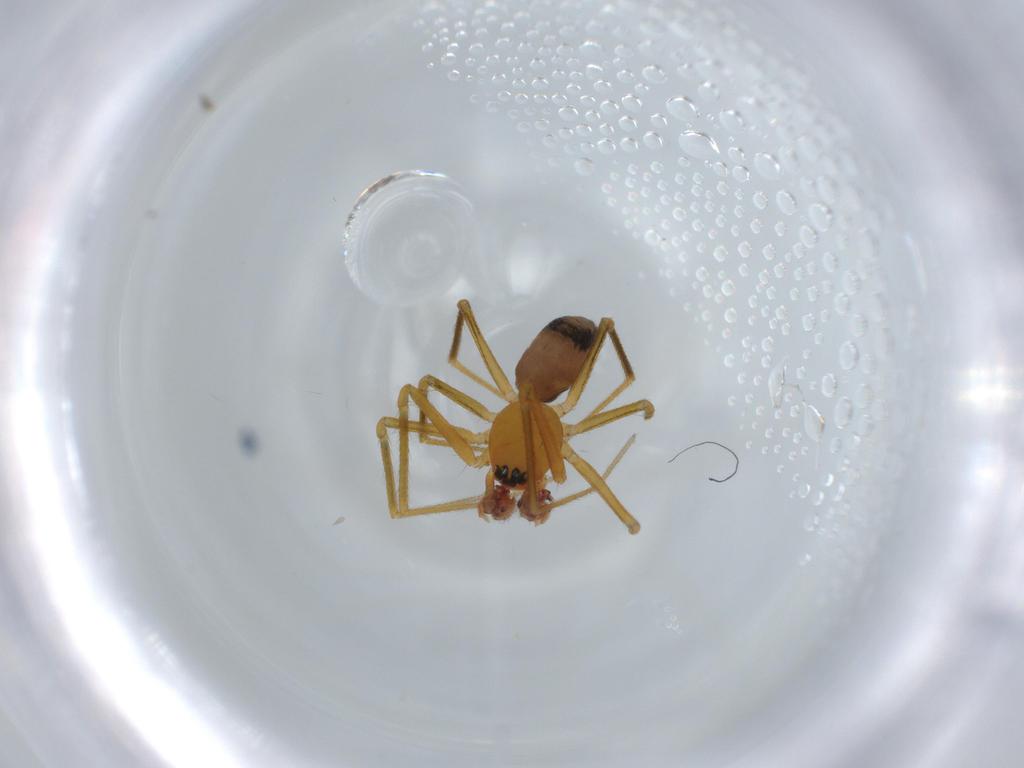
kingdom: Animalia
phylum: Arthropoda
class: Arachnida
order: Araneae
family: Linyphiidae
